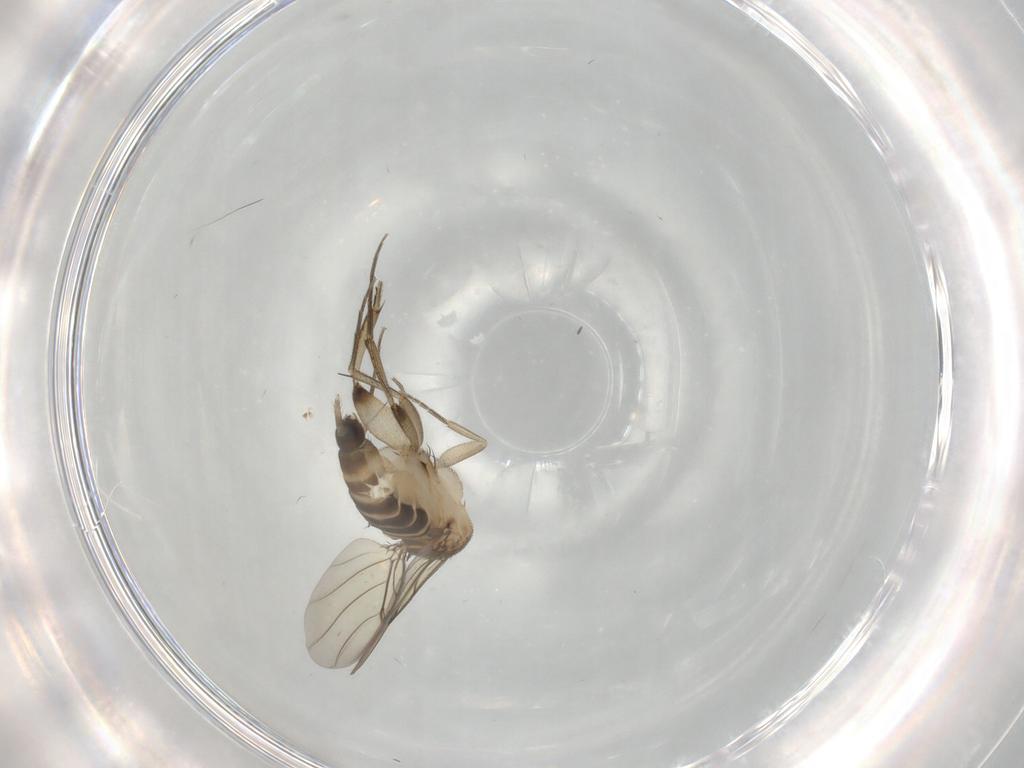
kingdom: Animalia
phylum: Arthropoda
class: Insecta
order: Diptera
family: Phoridae
